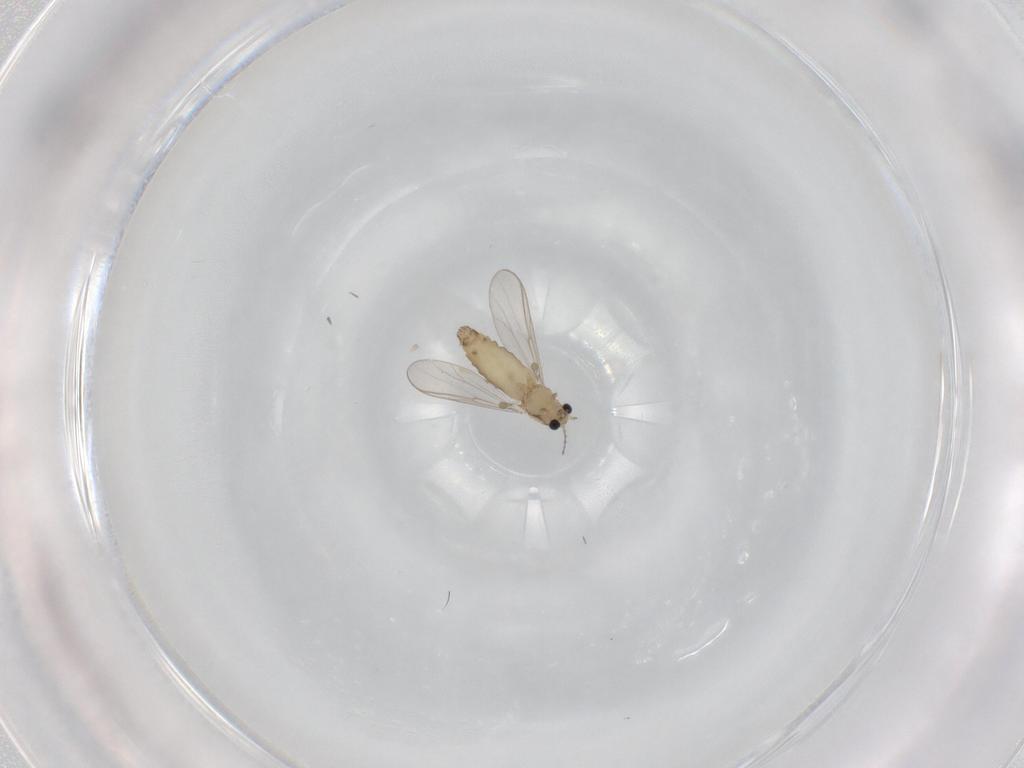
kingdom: Animalia
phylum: Arthropoda
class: Insecta
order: Diptera
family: Chironomidae
